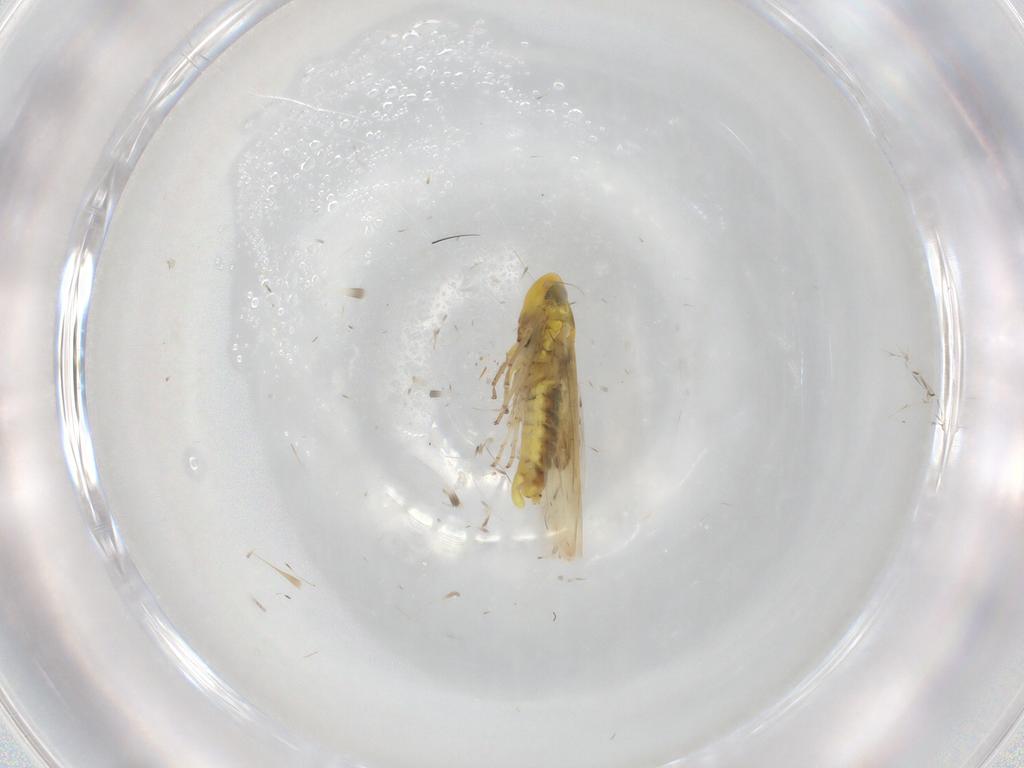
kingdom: Animalia
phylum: Arthropoda
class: Insecta
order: Hemiptera
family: Cicadellidae
